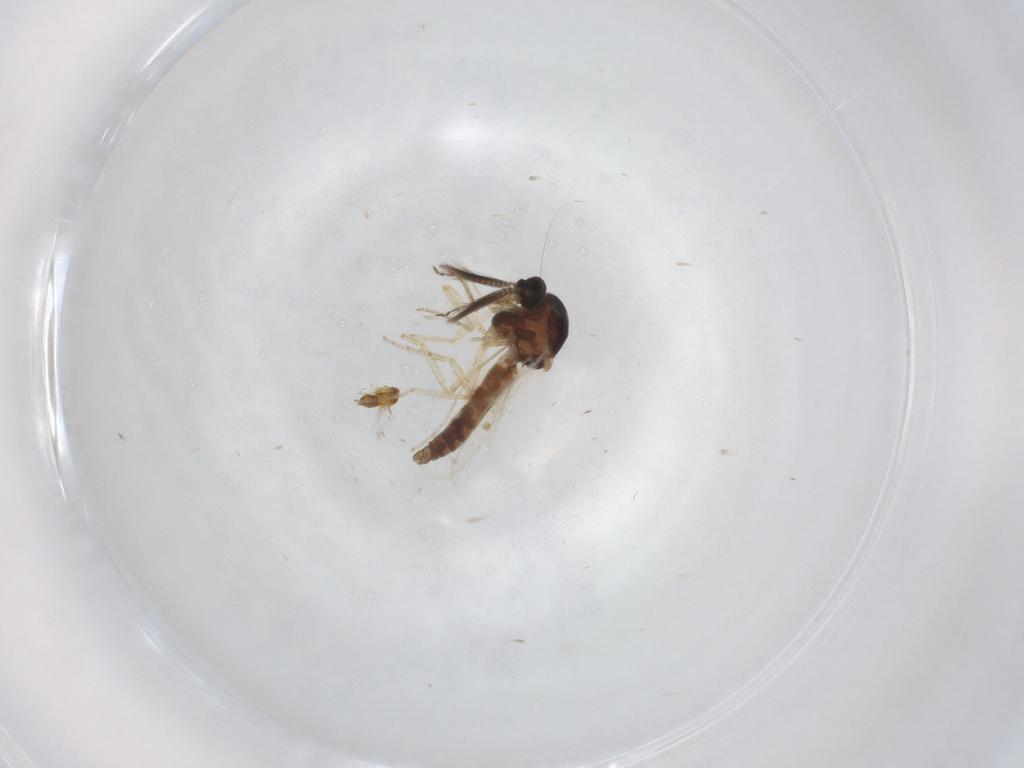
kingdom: Animalia
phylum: Arthropoda
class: Insecta
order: Diptera
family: Ceratopogonidae
